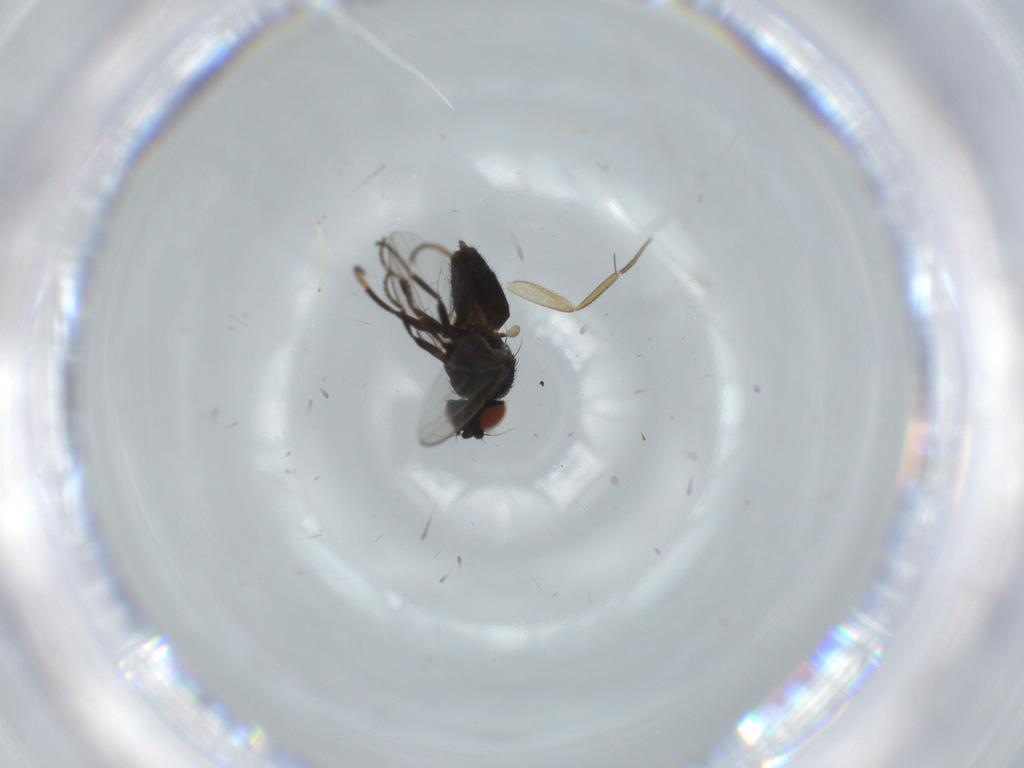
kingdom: Animalia
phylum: Arthropoda
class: Insecta
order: Diptera
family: Milichiidae
